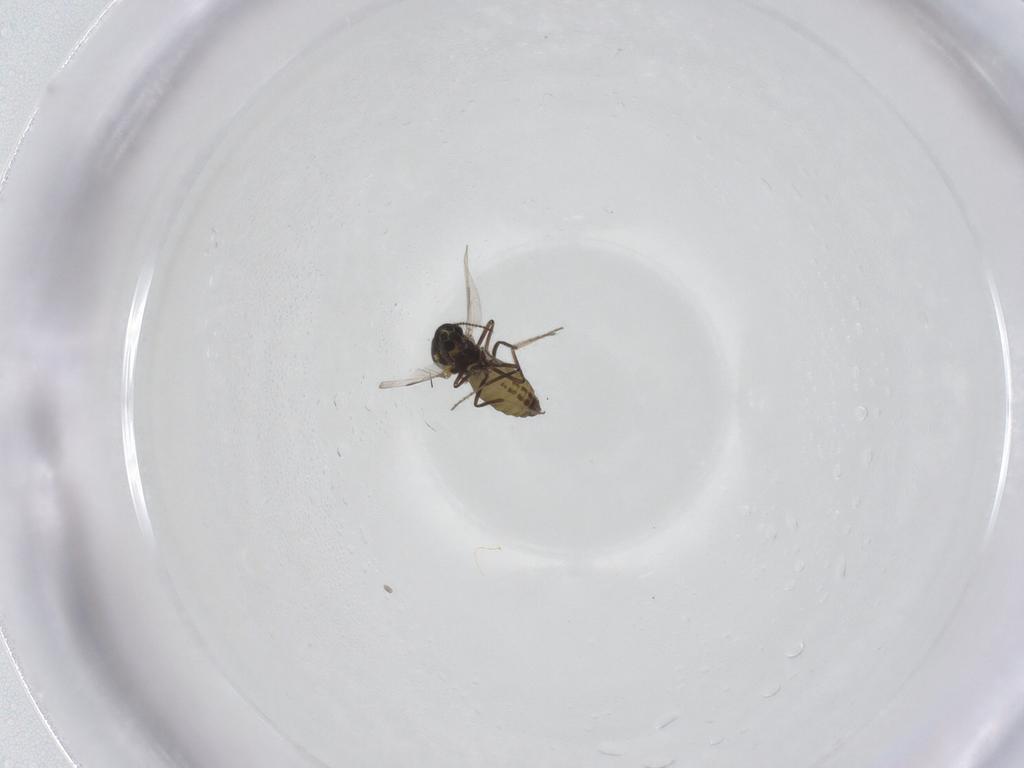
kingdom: Animalia
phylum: Arthropoda
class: Insecta
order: Diptera
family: Ceratopogonidae
